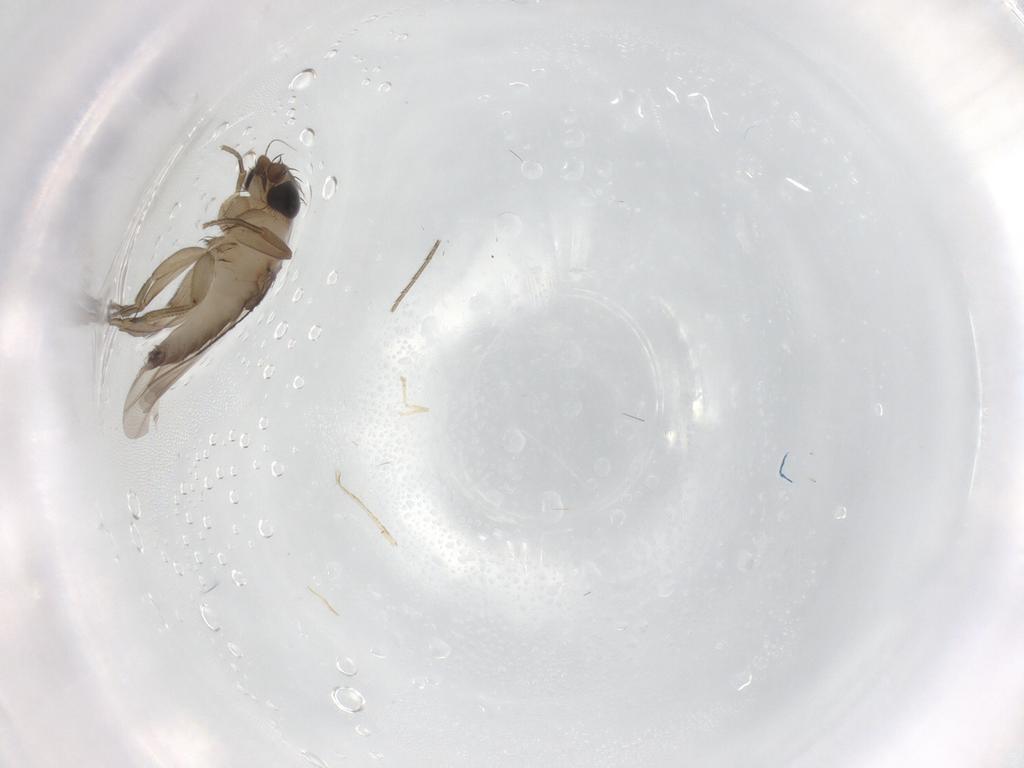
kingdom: Animalia
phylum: Arthropoda
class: Insecta
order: Diptera
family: Phoridae
